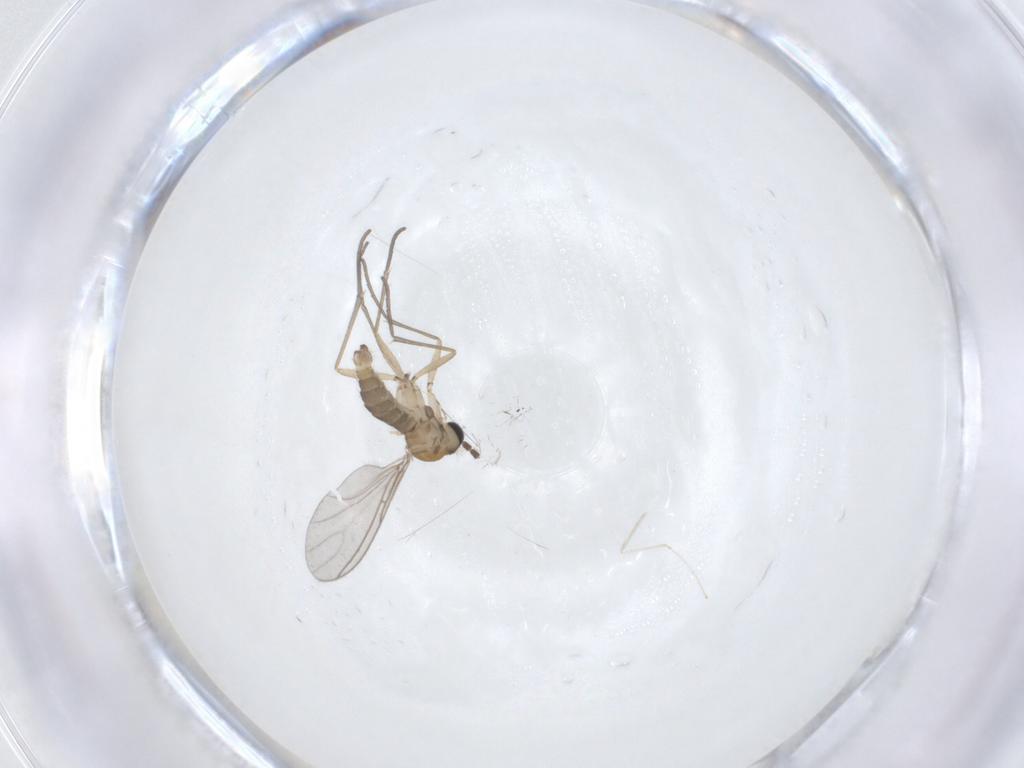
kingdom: Animalia
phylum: Arthropoda
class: Insecta
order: Diptera
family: Sciaridae
